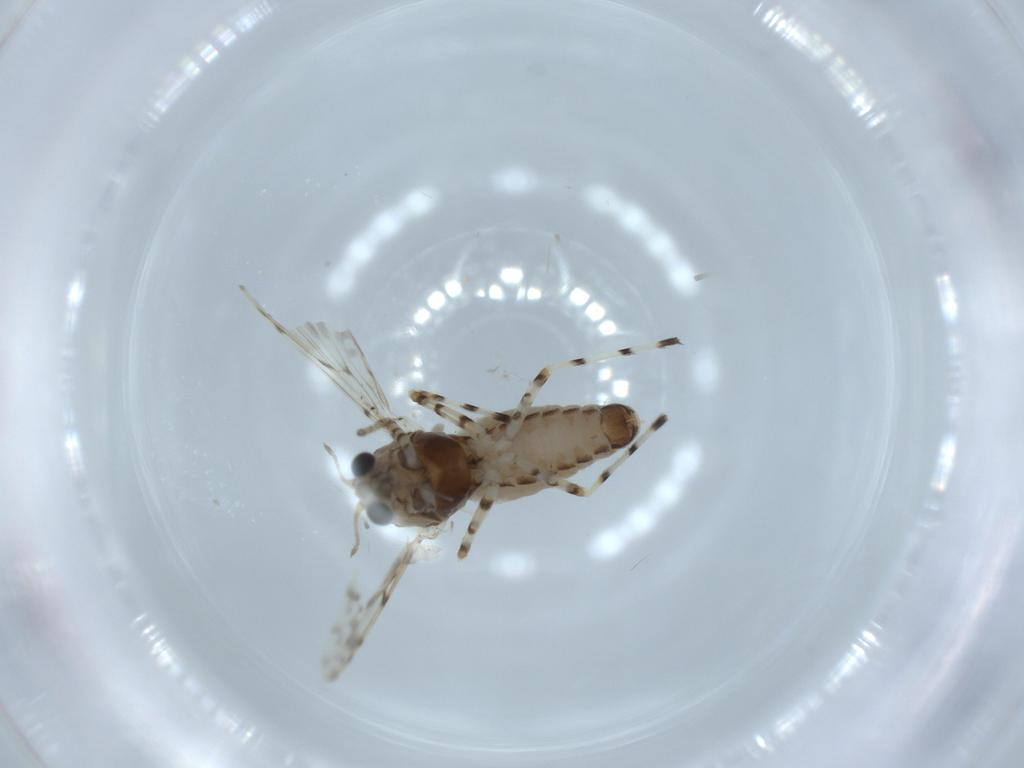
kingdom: Animalia
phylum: Arthropoda
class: Insecta
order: Diptera
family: Chironomidae
